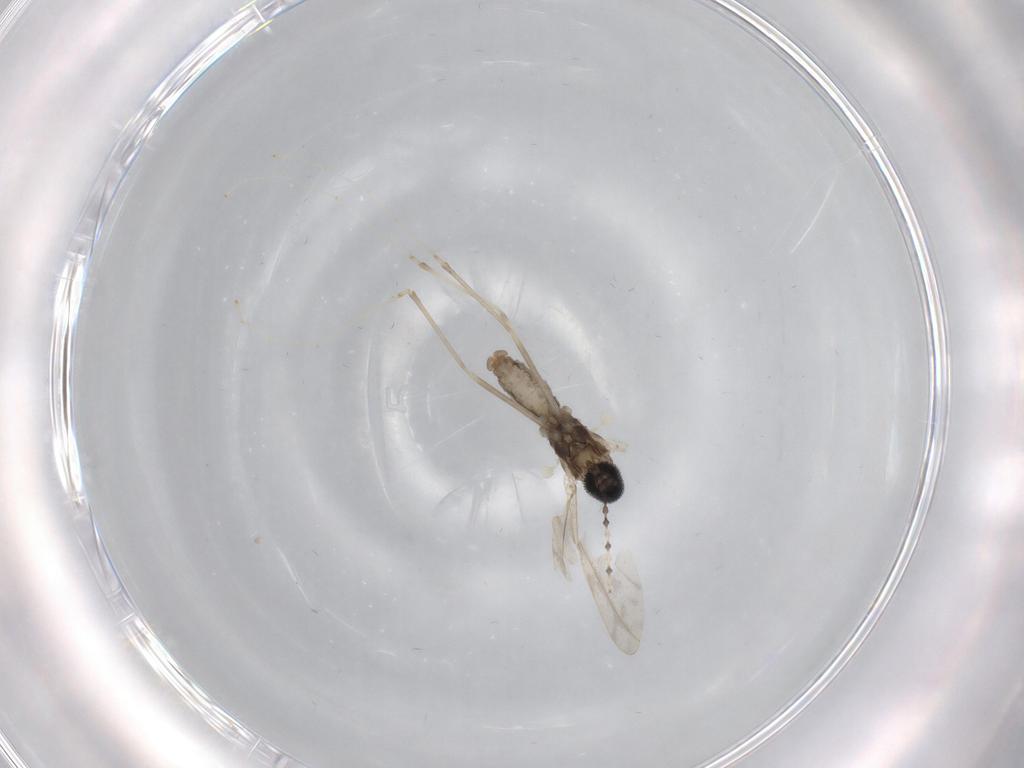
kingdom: Animalia
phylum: Arthropoda
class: Insecta
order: Diptera
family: Cecidomyiidae
